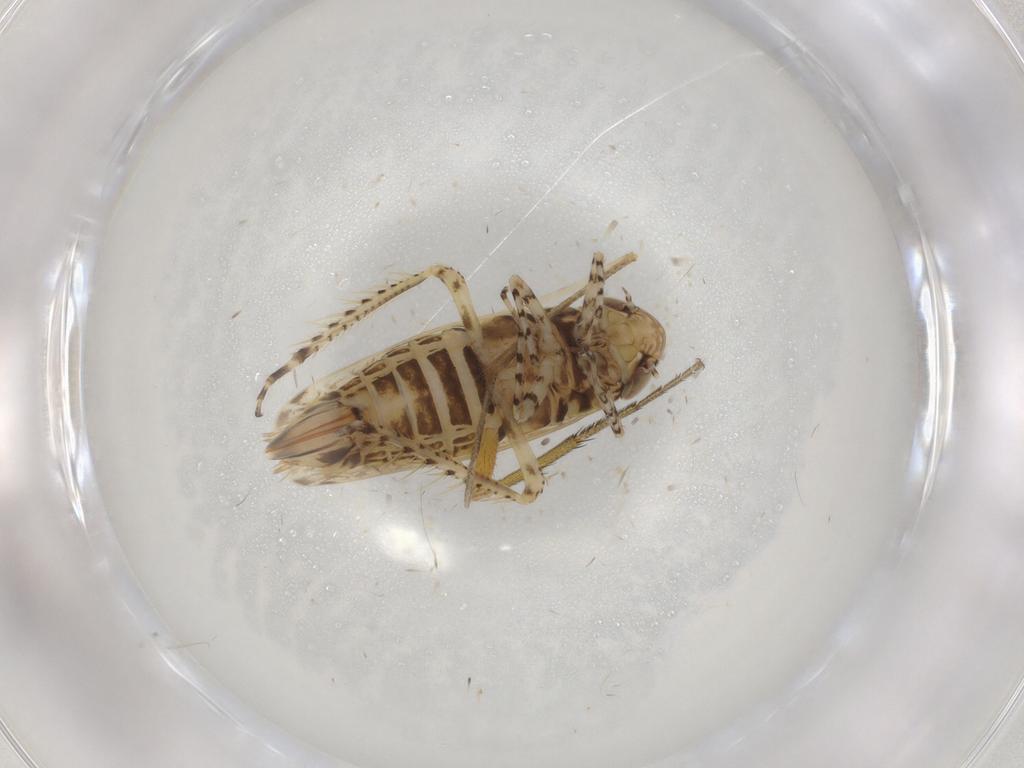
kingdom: Animalia
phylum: Arthropoda
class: Insecta
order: Hemiptera
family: Cicadellidae
